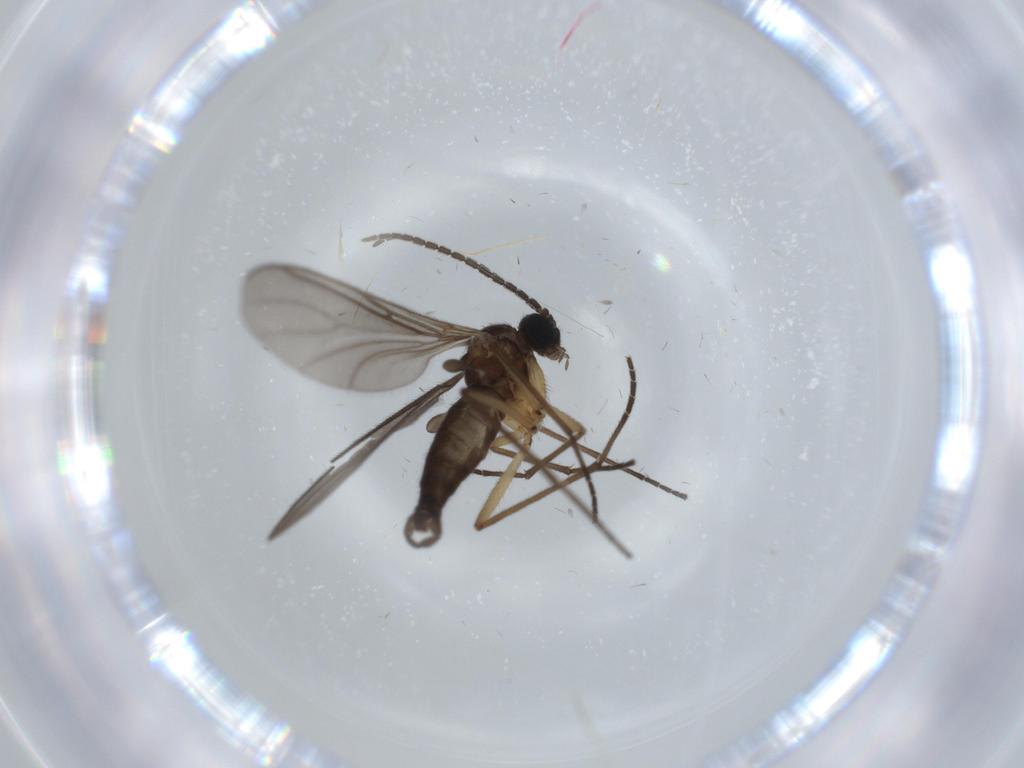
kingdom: Animalia
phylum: Arthropoda
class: Insecta
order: Diptera
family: Sciaridae
